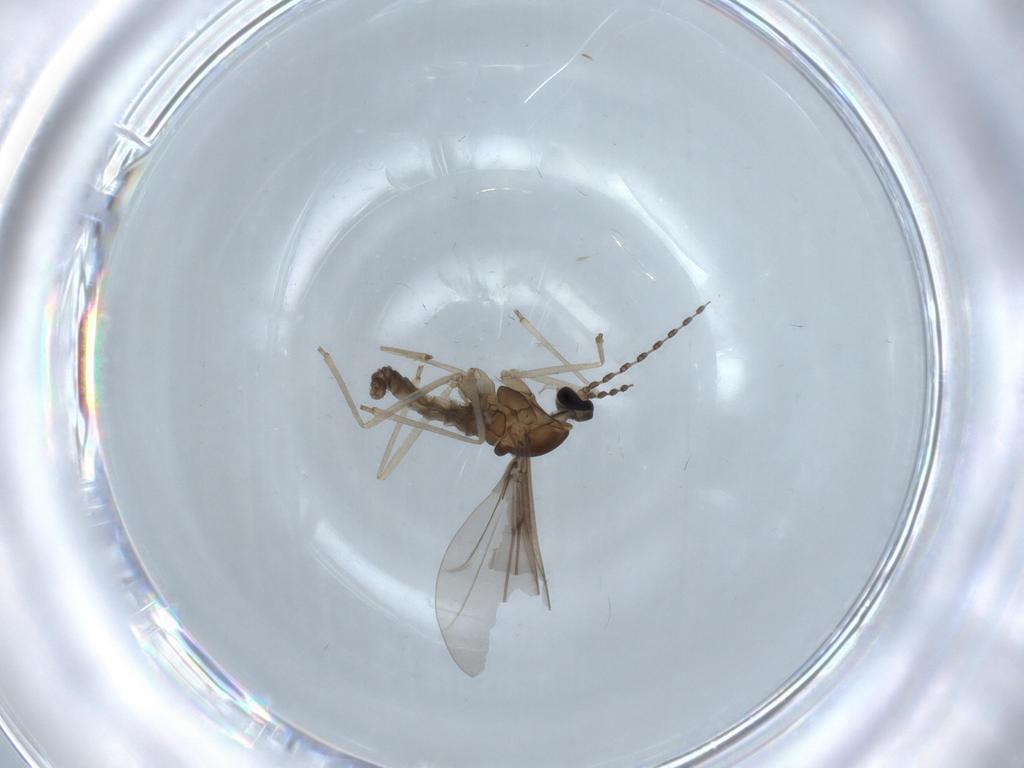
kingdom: Animalia
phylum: Arthropoda
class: Insecta
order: Diptera
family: Cecidomyiidae
